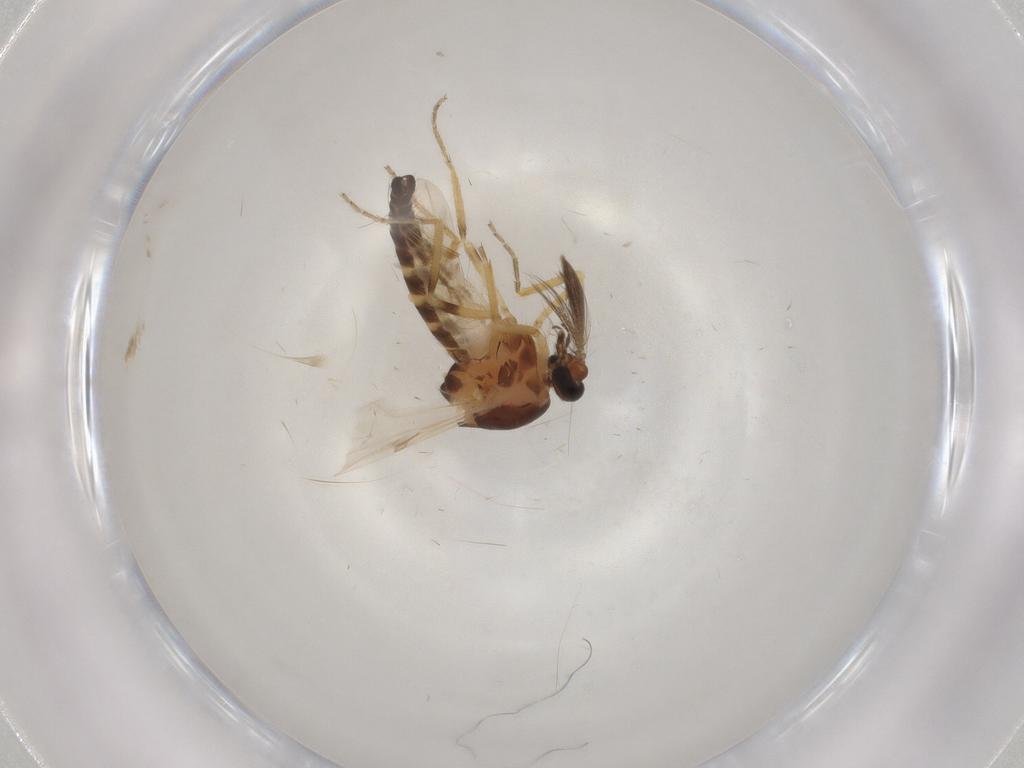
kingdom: Animalia
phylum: Arthropoda
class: Insecta
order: Diptera
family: Ceratopogonidae
